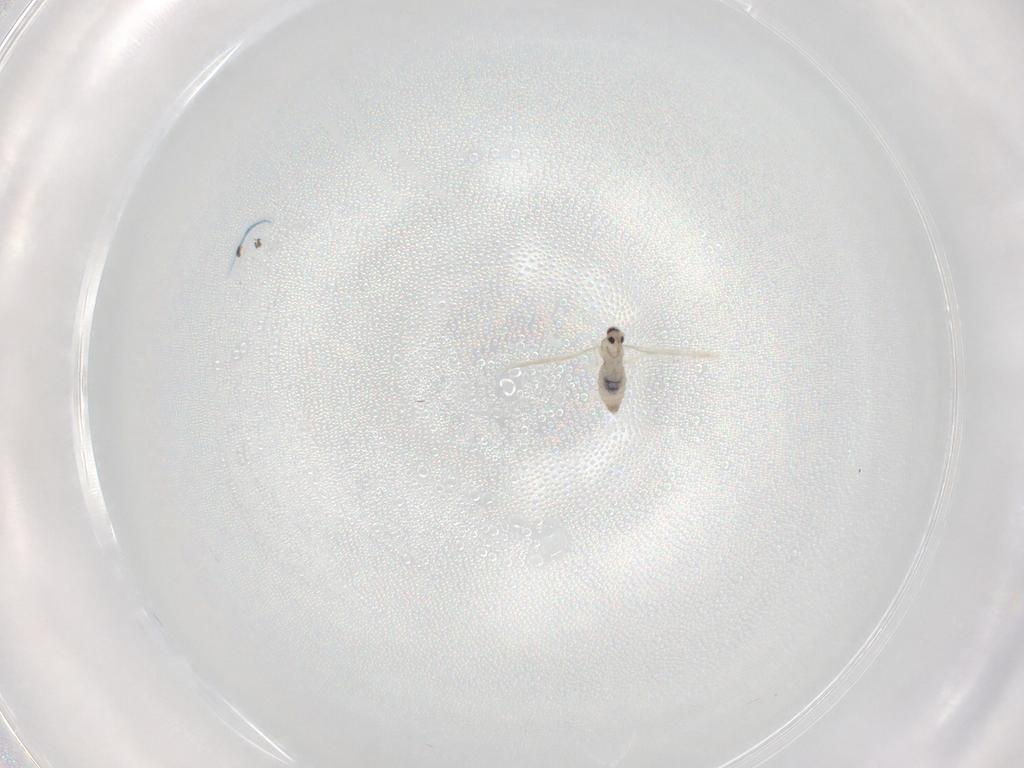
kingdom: Animalia
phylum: Arthropoda
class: Insecta
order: Diptera
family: Cecidomyiidae
